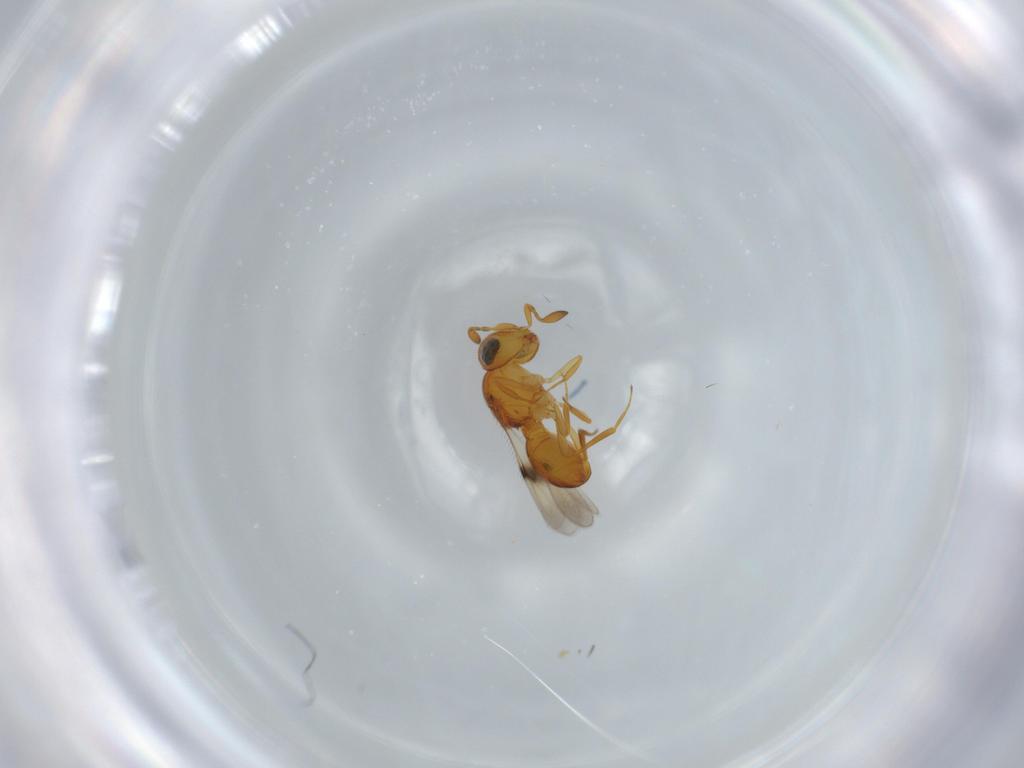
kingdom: Animalia
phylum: Arthropoda
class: Insecta
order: Hymenoptera
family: Scelionidae
